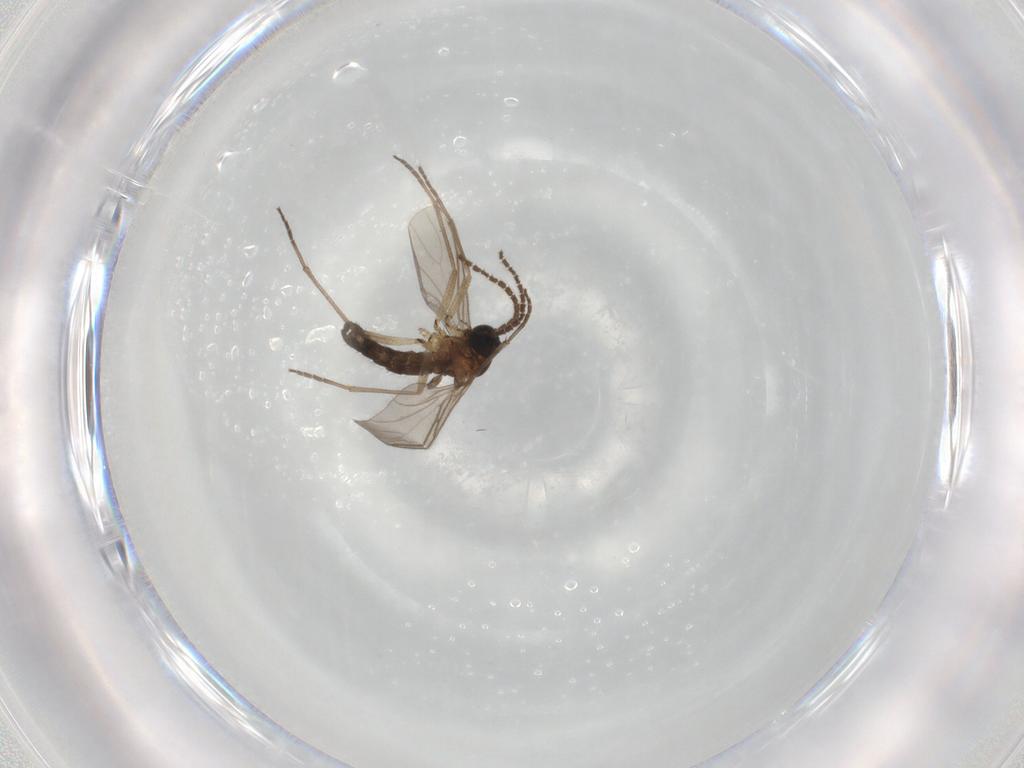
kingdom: Animalia
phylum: Arthropoda
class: Insecta
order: Diptera
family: Sciaridae
